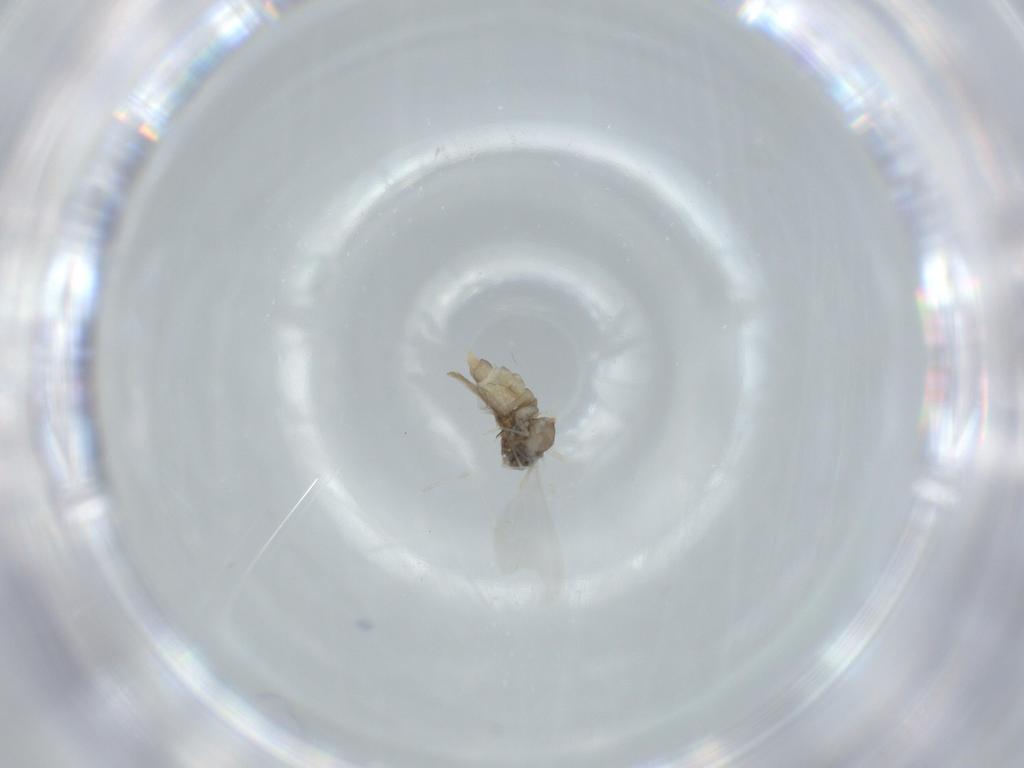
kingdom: Animalia
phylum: Arthropoda
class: Insecta
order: Diptera
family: Cecidomyiidae
